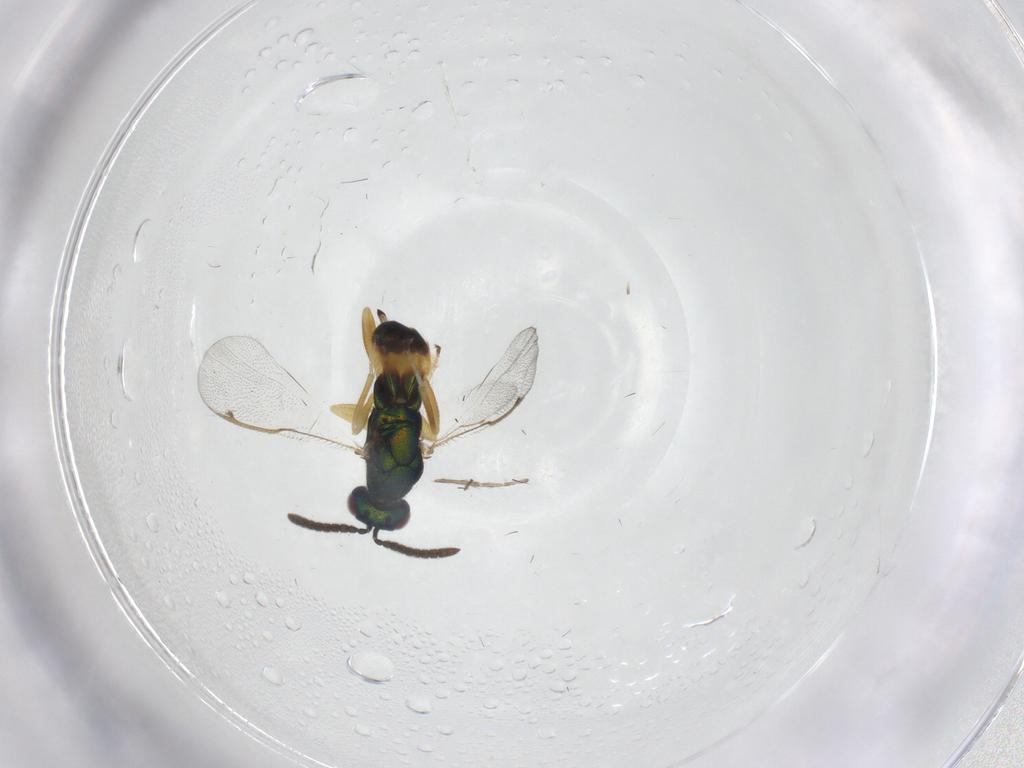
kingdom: Animalia
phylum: Arthropoda
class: Insecta
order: Hymenoptera
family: Torymidae
